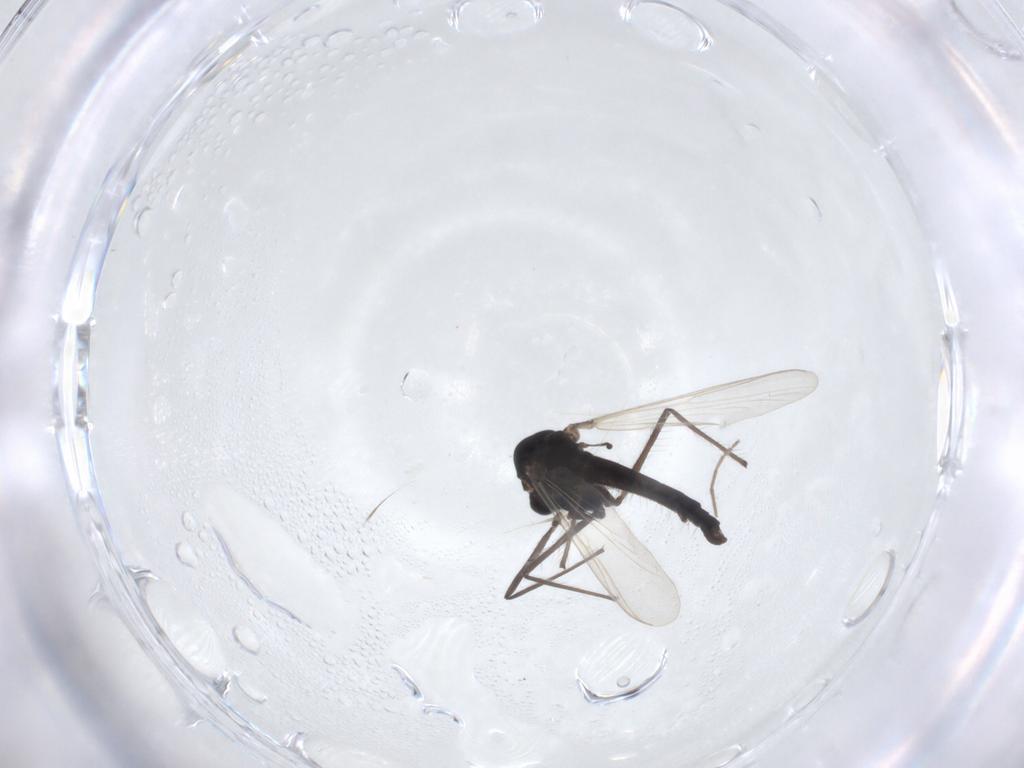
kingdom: Animalia
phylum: Arthropoda
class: Insecta
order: Diptera
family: Chironomidae
